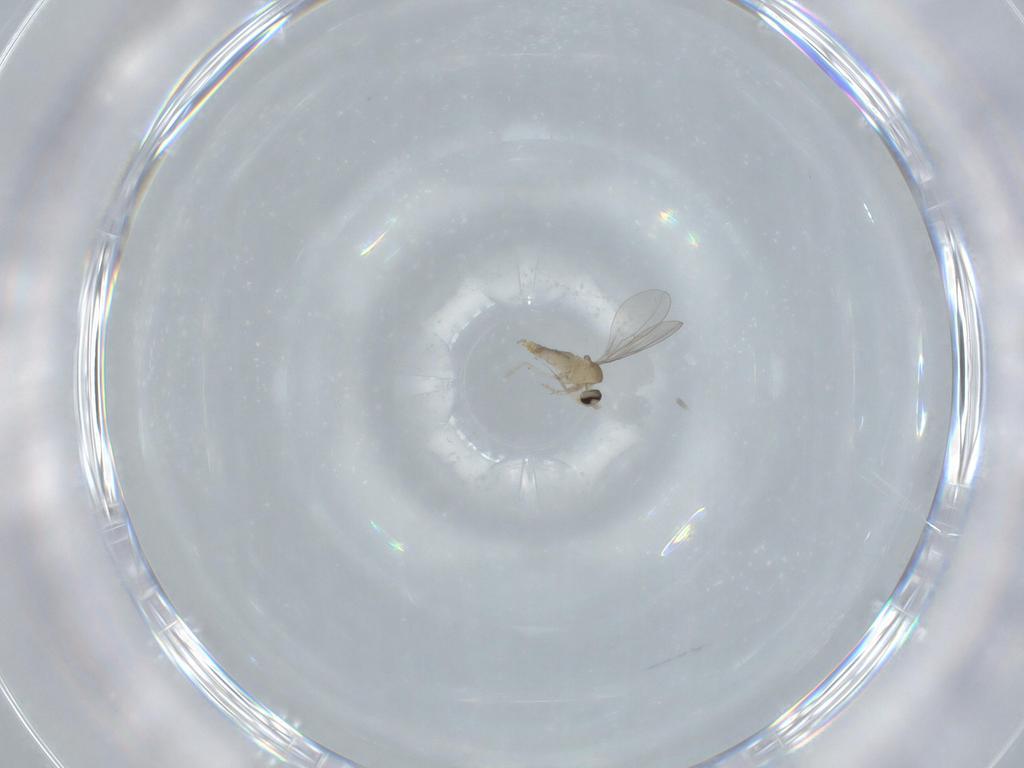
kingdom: Animalia
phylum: Arthropoda
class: Insecta
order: Diptera
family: Cecidomyiidae
